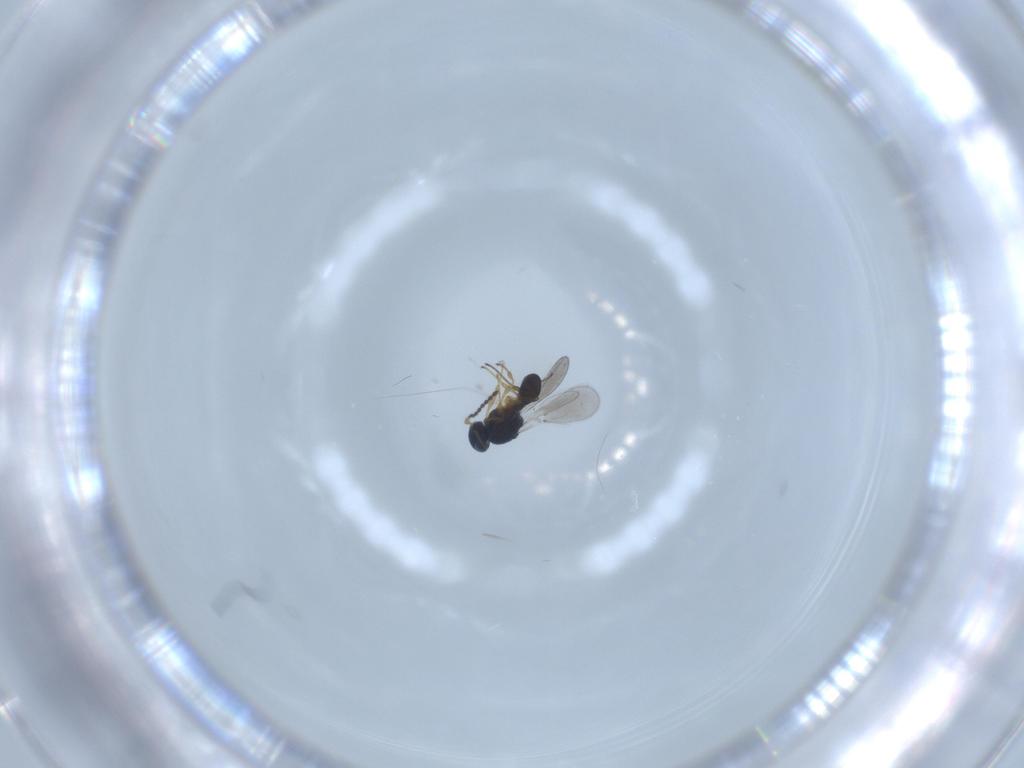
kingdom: Animalia
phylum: Arthropoda
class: Insecta
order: Hymenoptera
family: Platygastridae
